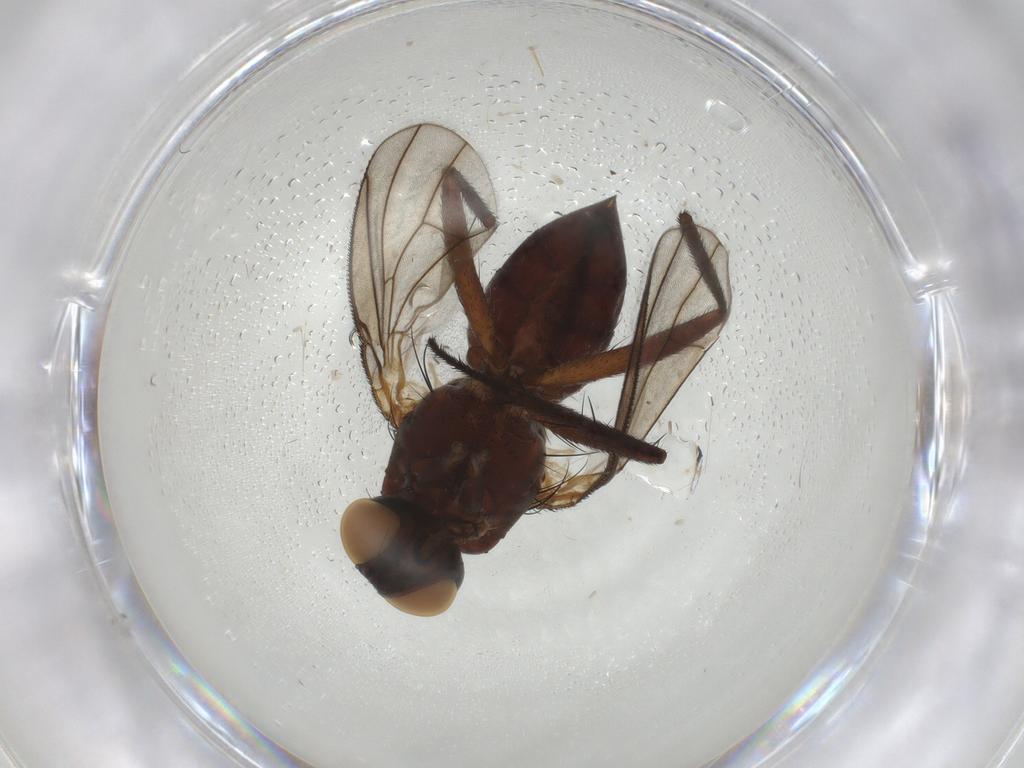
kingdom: Animalia
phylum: Arthropoda
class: Insecta
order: Diptera
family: Muscidae
